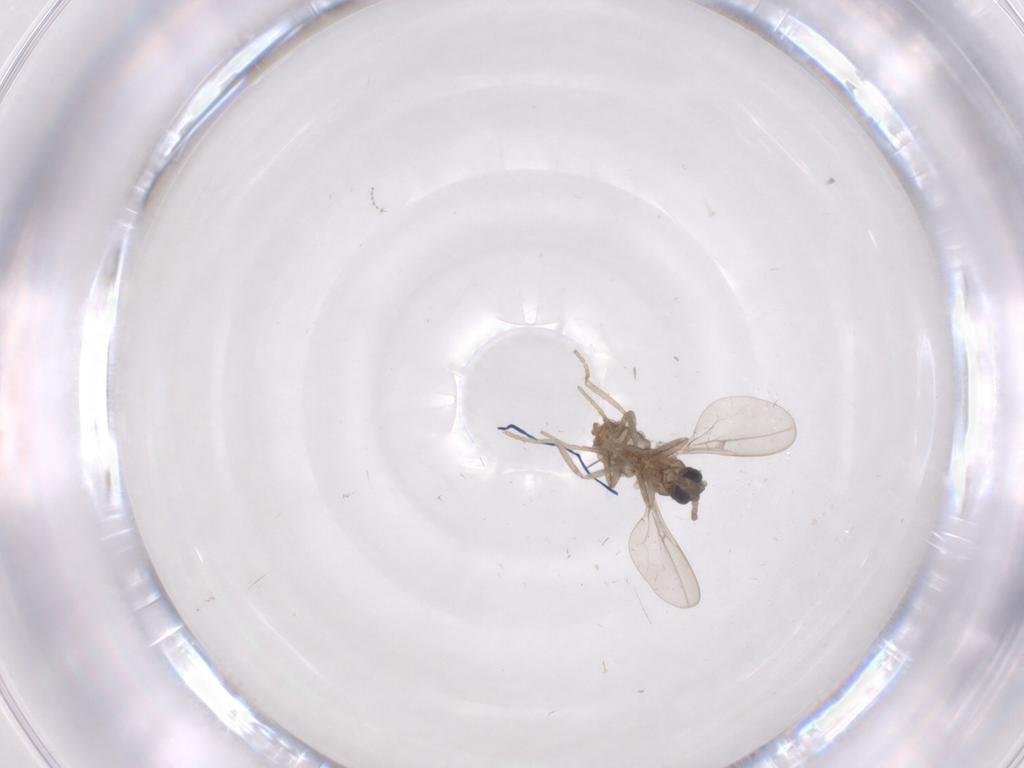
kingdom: Animalia
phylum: Arthropoda
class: Insecta
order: Diptera
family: Cecidomyiidae
